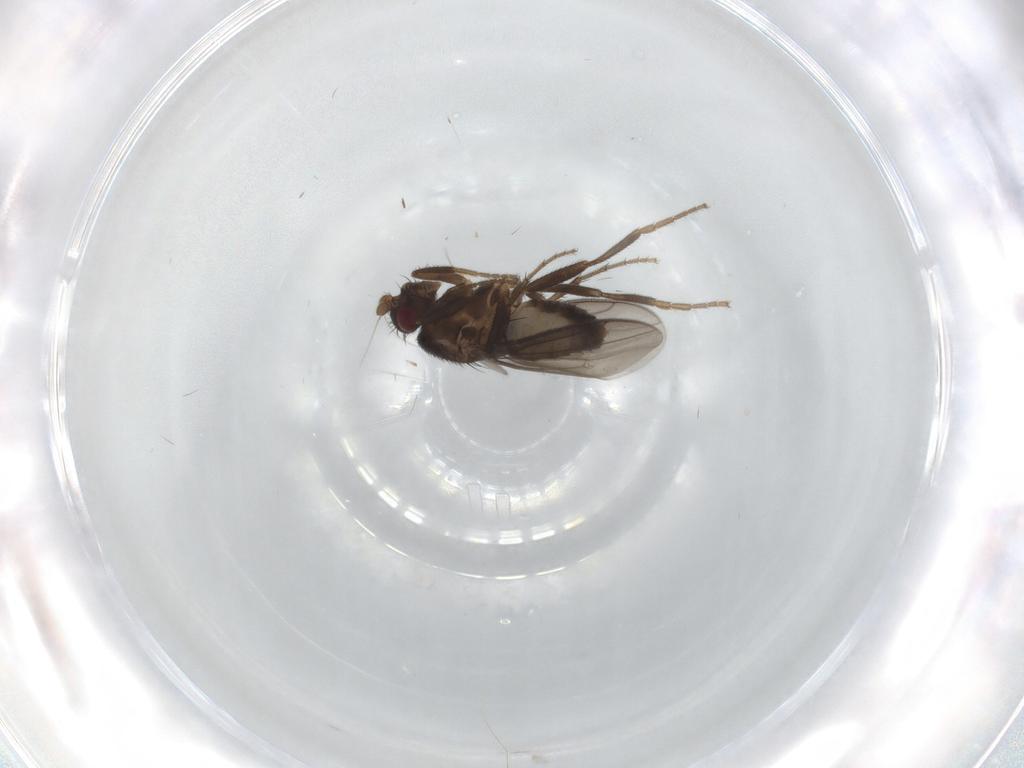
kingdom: Animalia
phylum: Arthropoda
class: Insecta
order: Diptera
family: Sphaeroceridae
